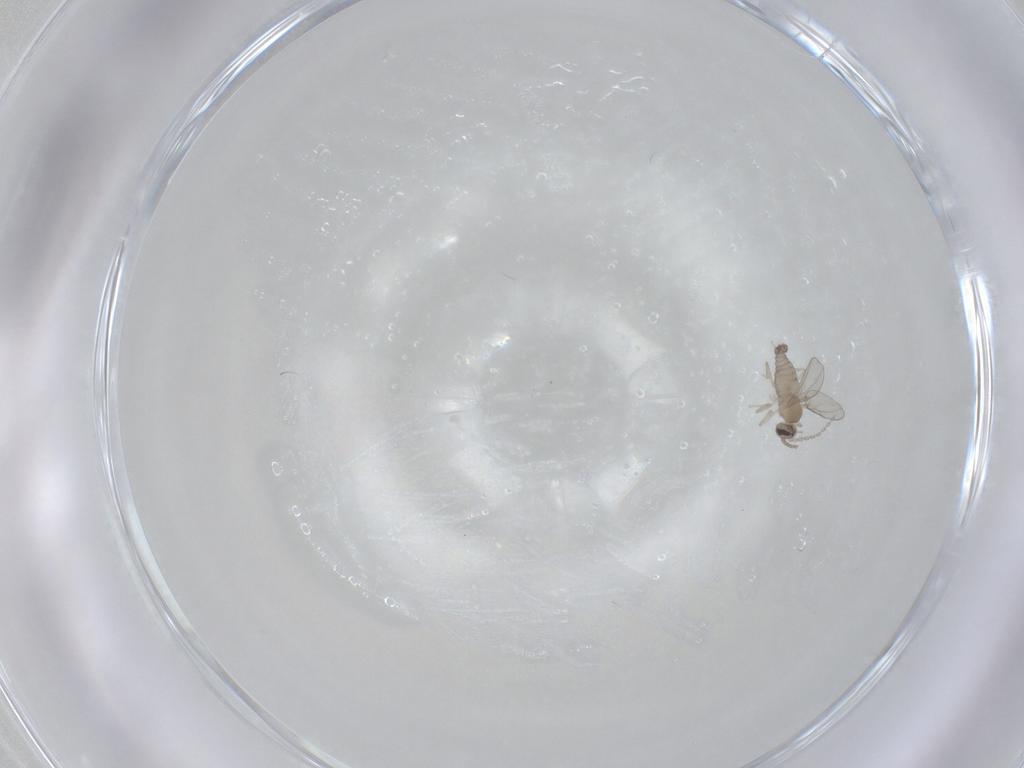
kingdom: Animalia
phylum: Arthropoda
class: Insecta
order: Diptera
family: Cecidomyiidae
